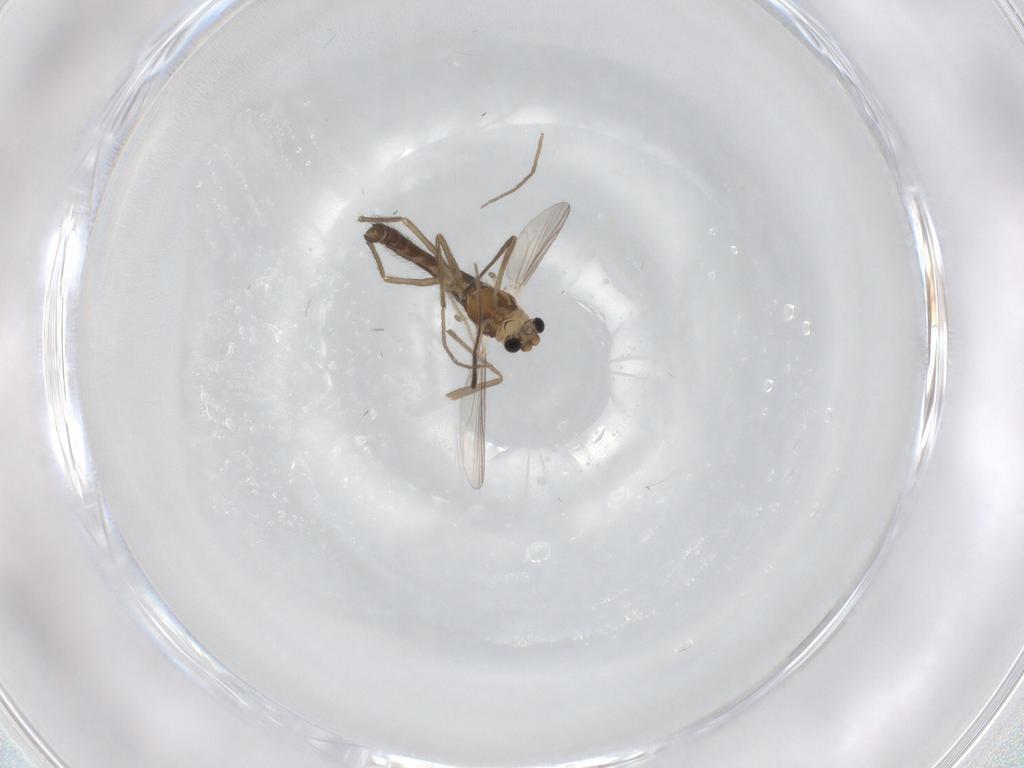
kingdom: Animalia
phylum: Arthropoda
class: Insecta
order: Diptera
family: Chironomidae
